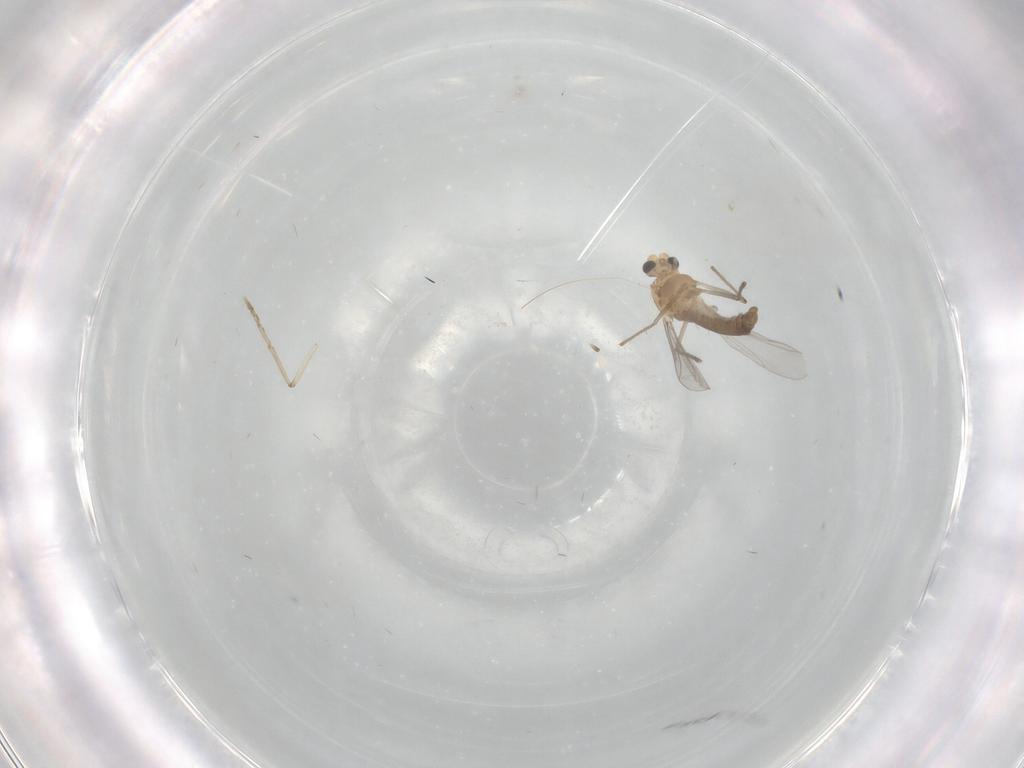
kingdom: Animalia
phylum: Arthropoda
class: Insecta
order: Diptera
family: Chironomidae
